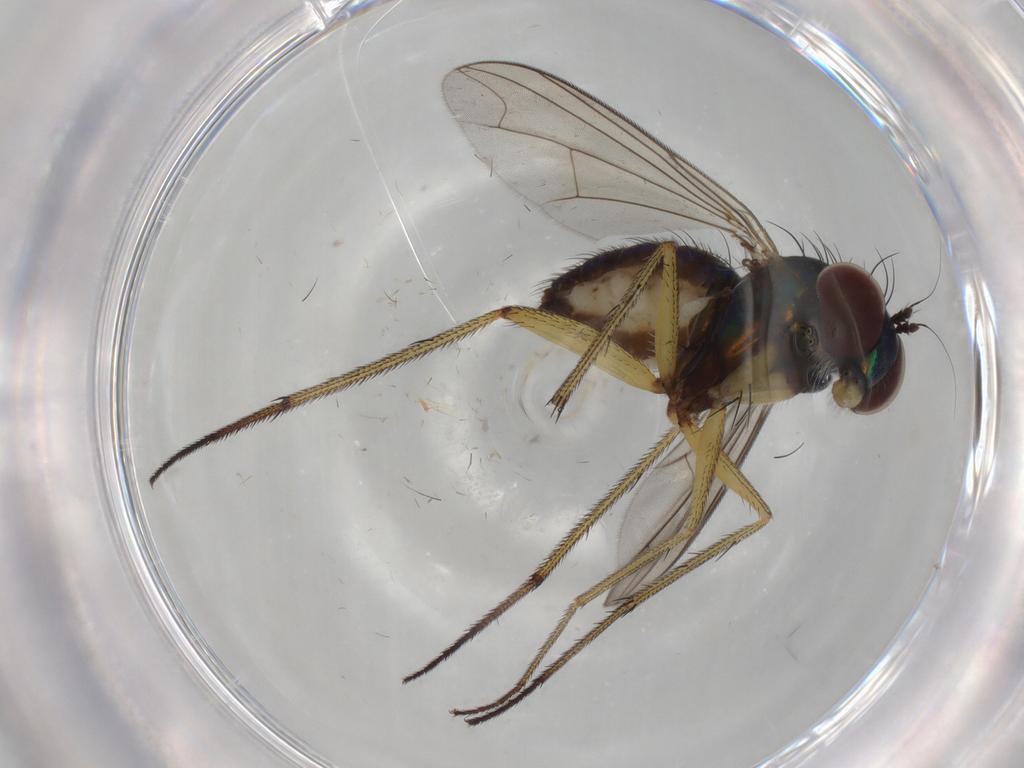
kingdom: Animalia
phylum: Arthropoda
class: Insecta
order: Diptera
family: Dolichopodidae
